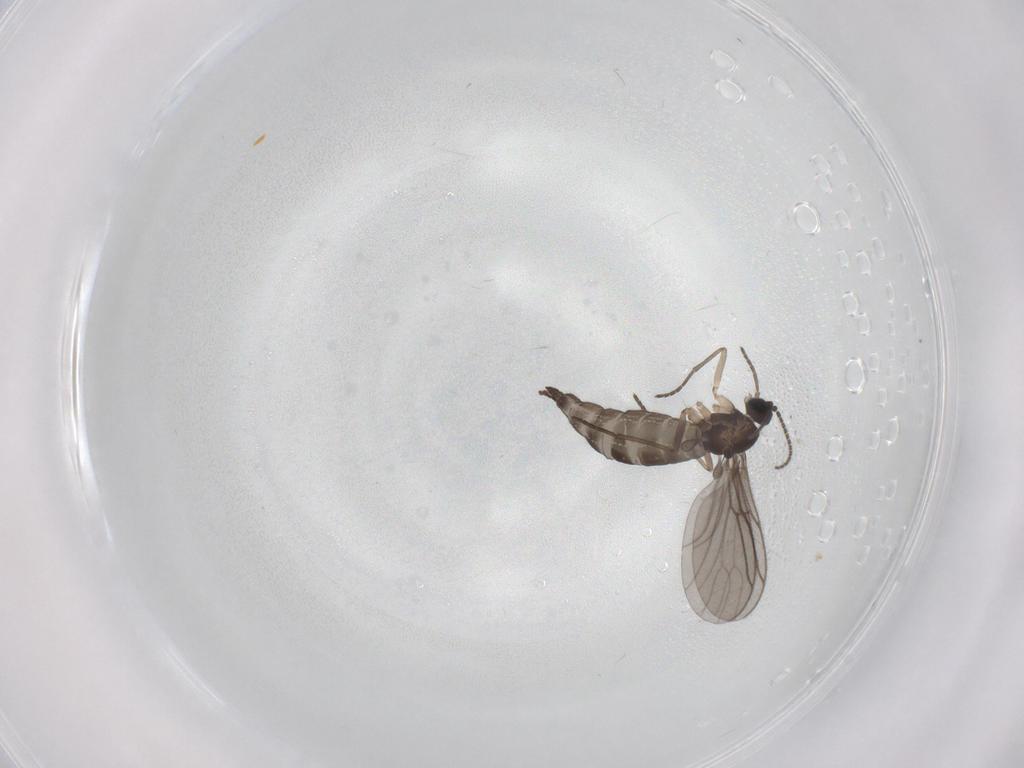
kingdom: Animalia
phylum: Arthropoda
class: Insecta
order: Diptera
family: Sciaridae
